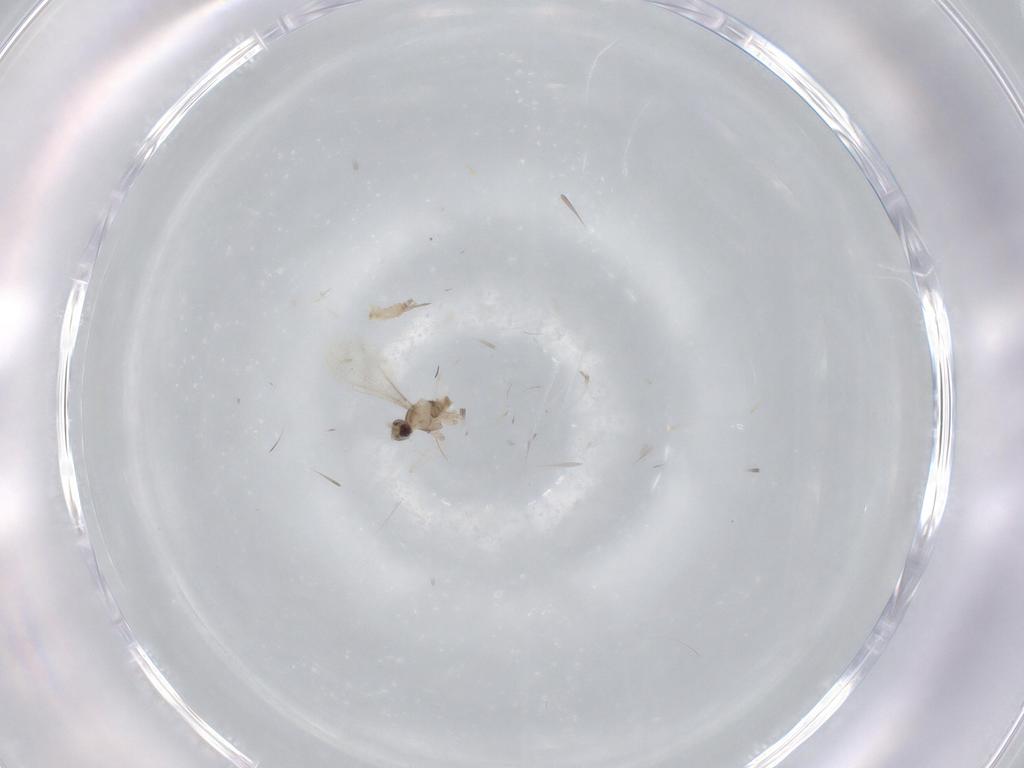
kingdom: Animalia
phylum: Arthropoda
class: Insecta
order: Diptera
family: Cecidomyiidae
